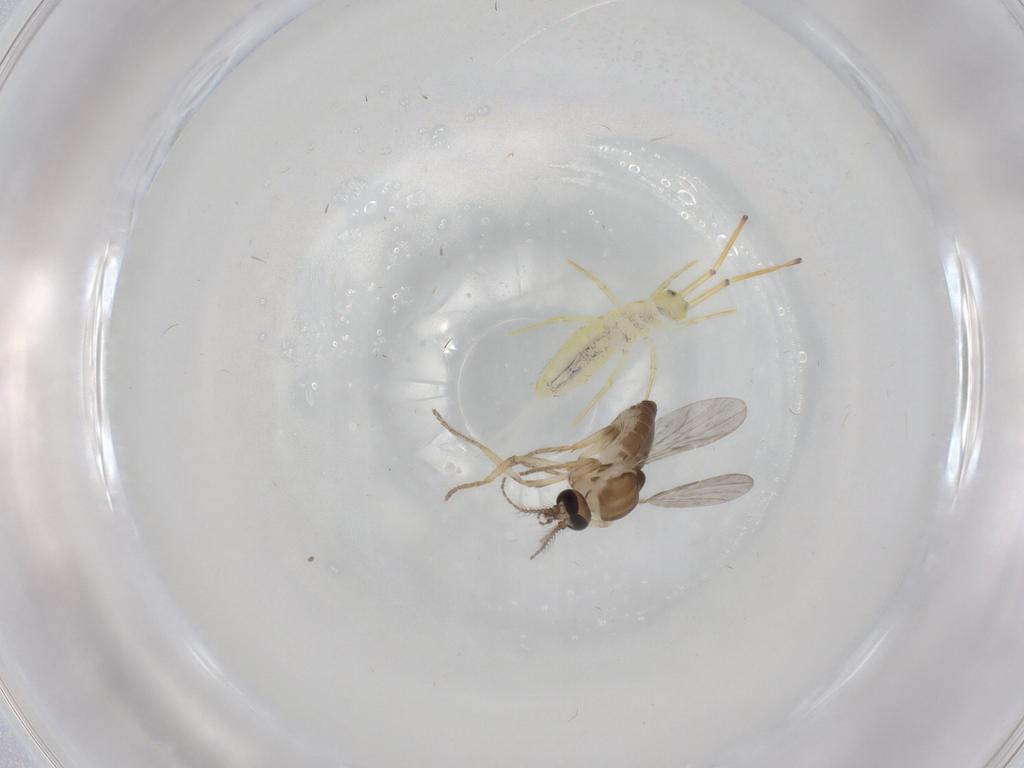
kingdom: Animalia
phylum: Arthropoda
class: Insecta
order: Diptera
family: Ceratopogonidae
